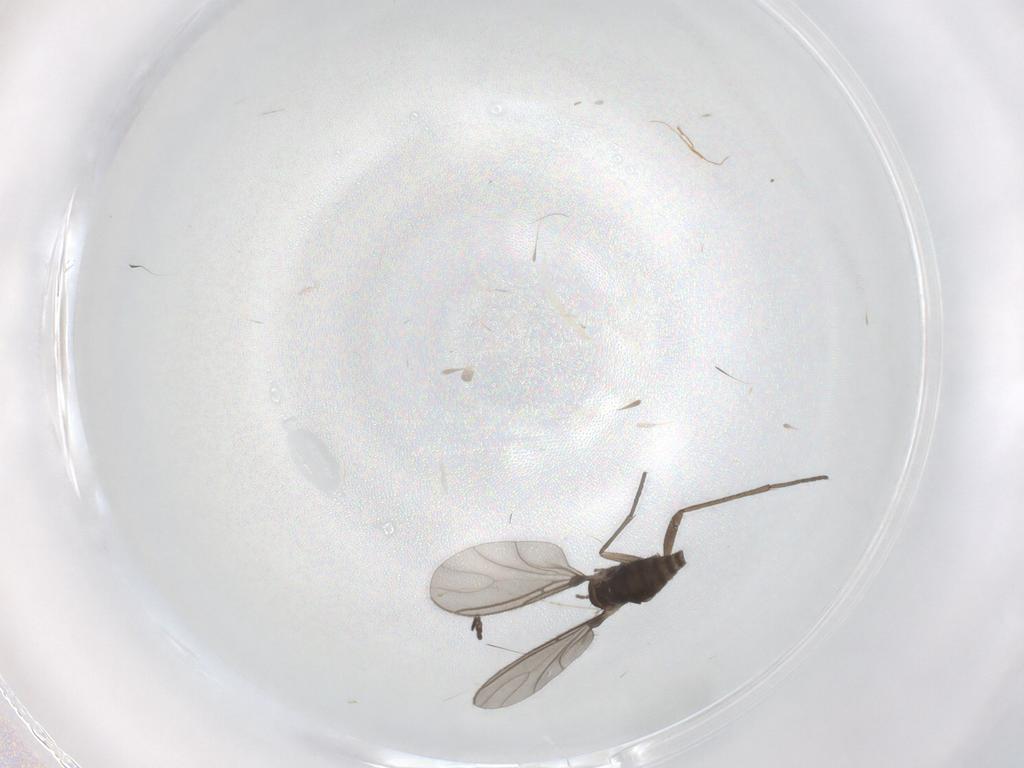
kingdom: Animalia
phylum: Arthropoda
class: Insecta
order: Diptera
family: Sciaridae
